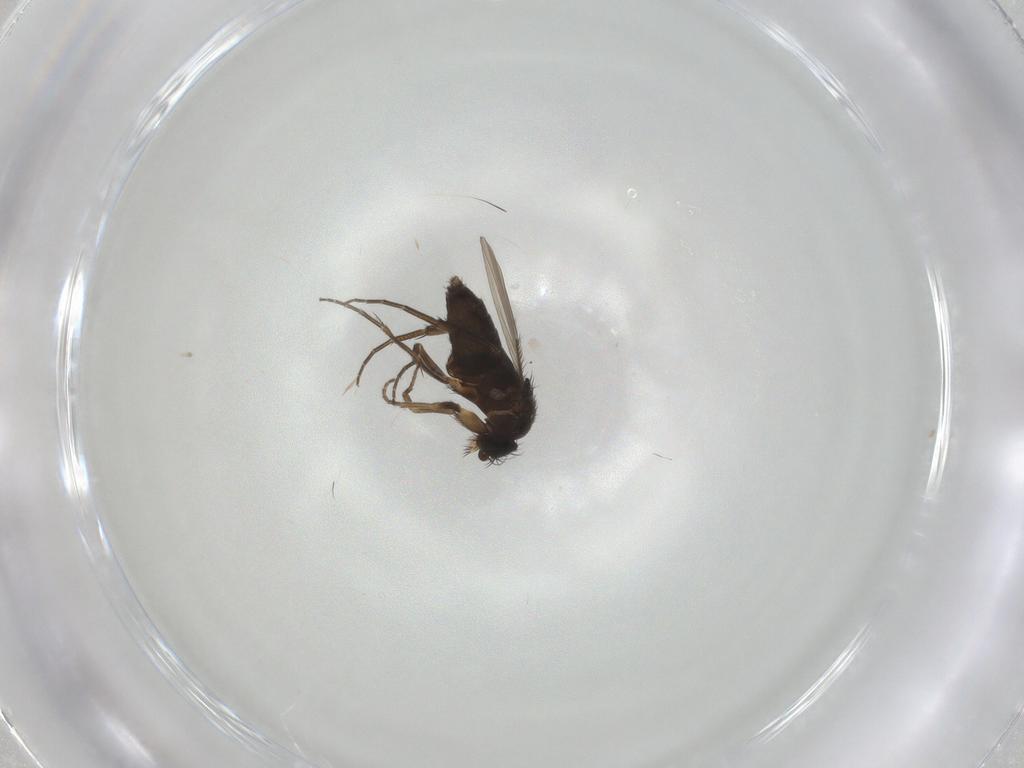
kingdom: Animalia
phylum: Arthropoda
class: Insecta
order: Diptera
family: Phoridae
